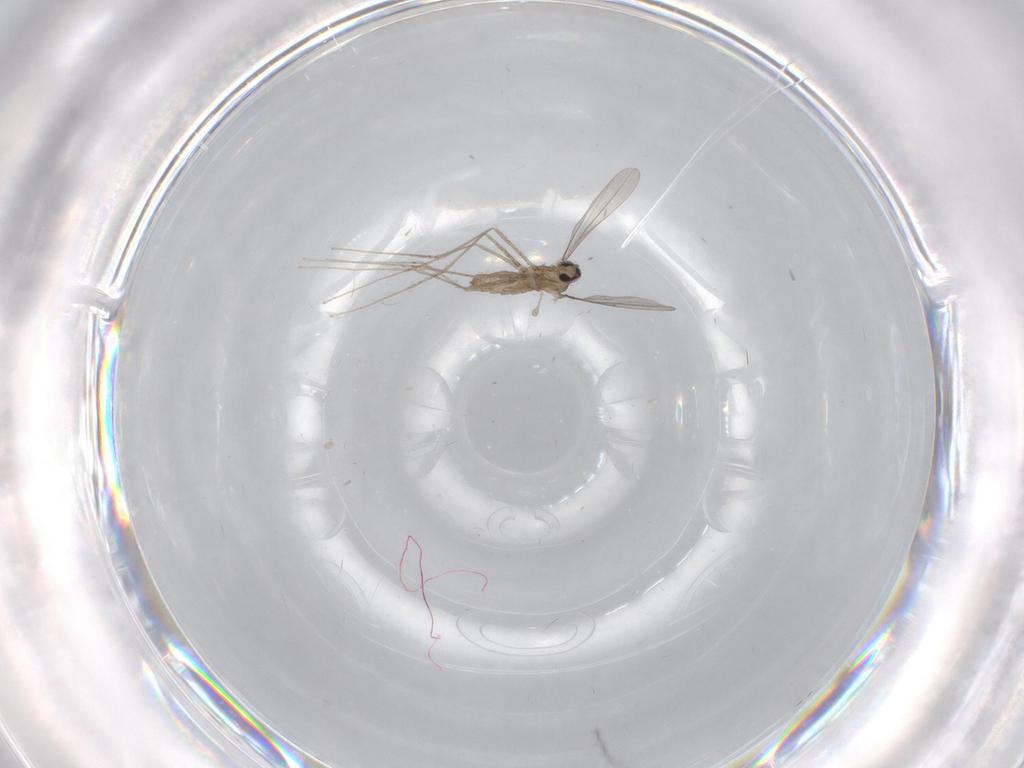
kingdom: Animalia
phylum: Arthropoda
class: Insecta
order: Diptera
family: Cecidomyiidae
